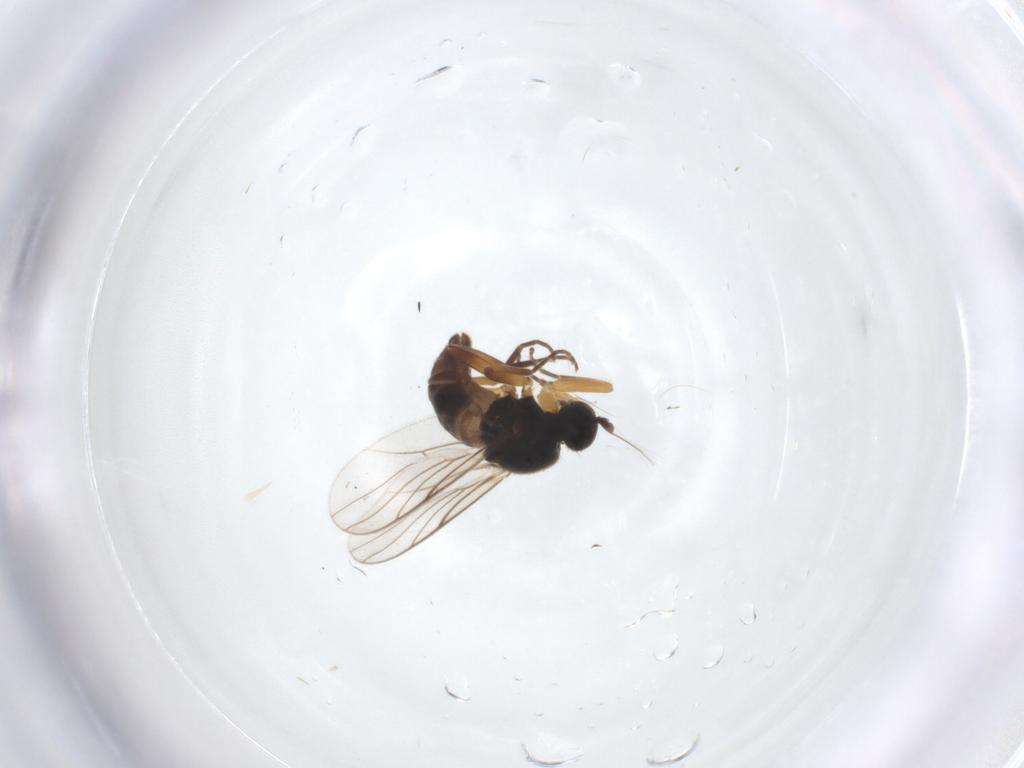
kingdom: Animalia
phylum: Arthropoda
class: Insecta
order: Diptera
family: Hybotidae
